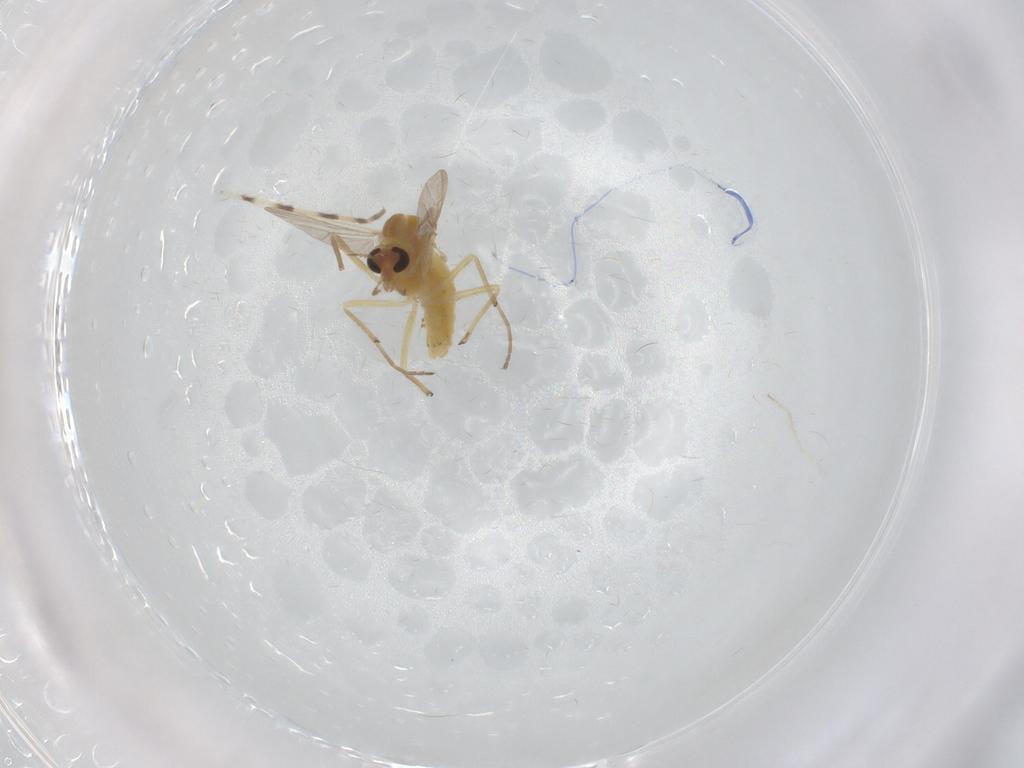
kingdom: Animalia
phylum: Arthropoda
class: Insecta
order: Diptera
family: Chironomidae
